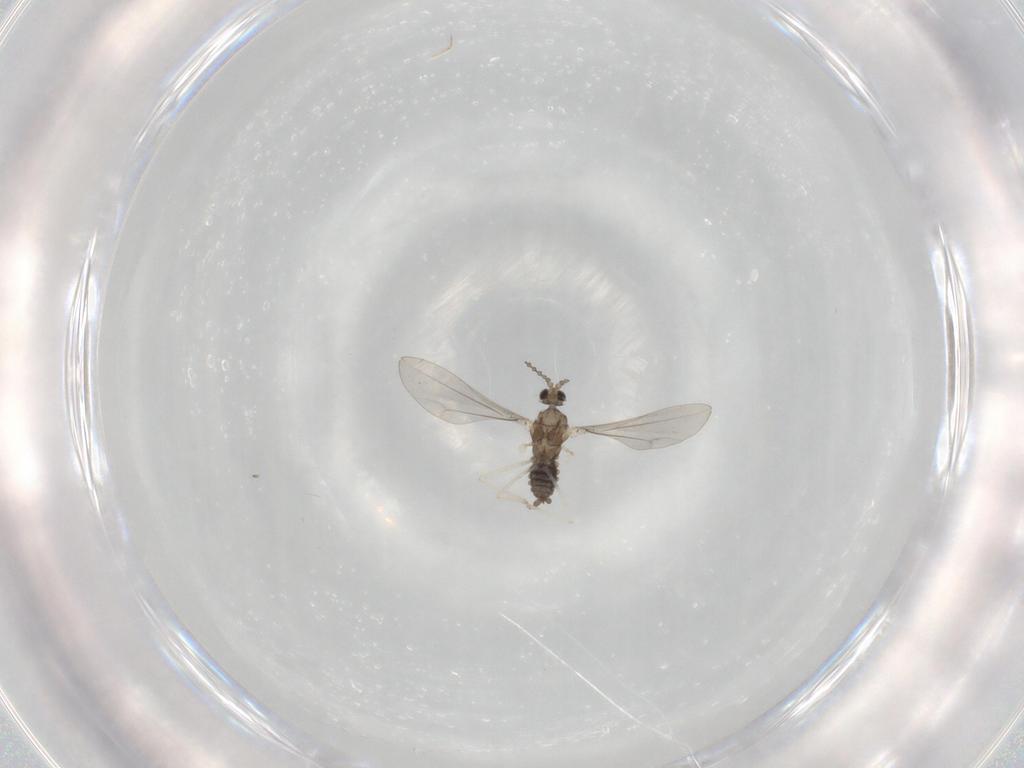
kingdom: Animalia
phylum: Arthropoda
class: Insecta
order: Diptera
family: Cecidomyiidae
